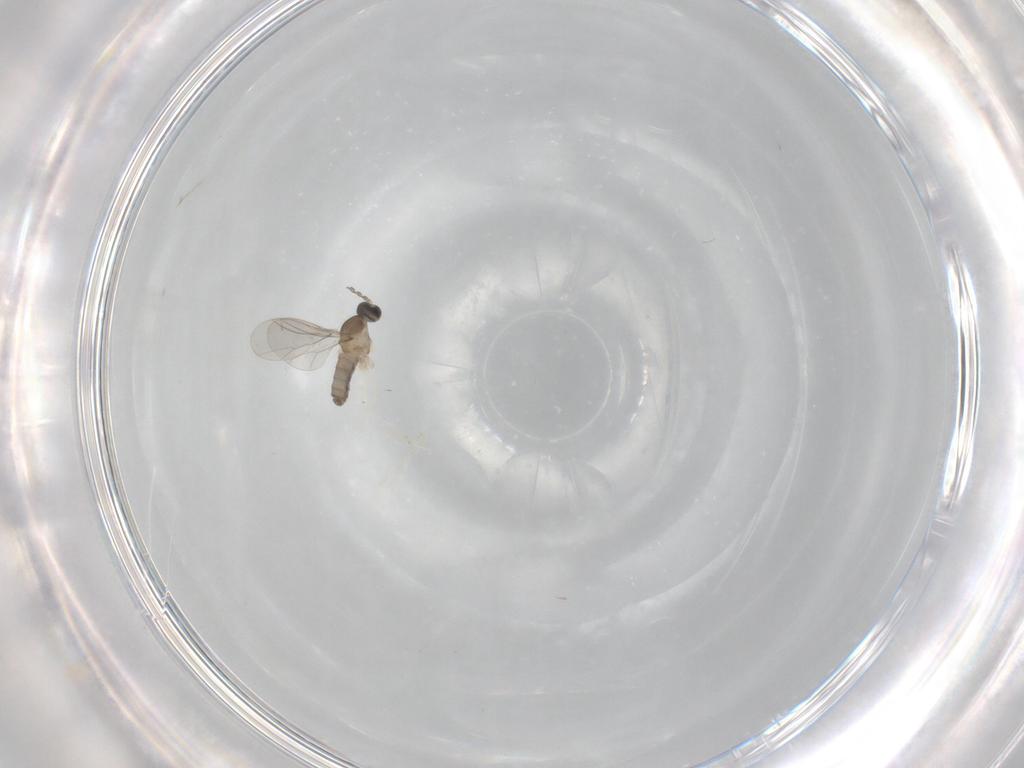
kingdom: Animalia
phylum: Arthropoda
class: Insecta
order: Diptera
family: Cecidomyiidae
